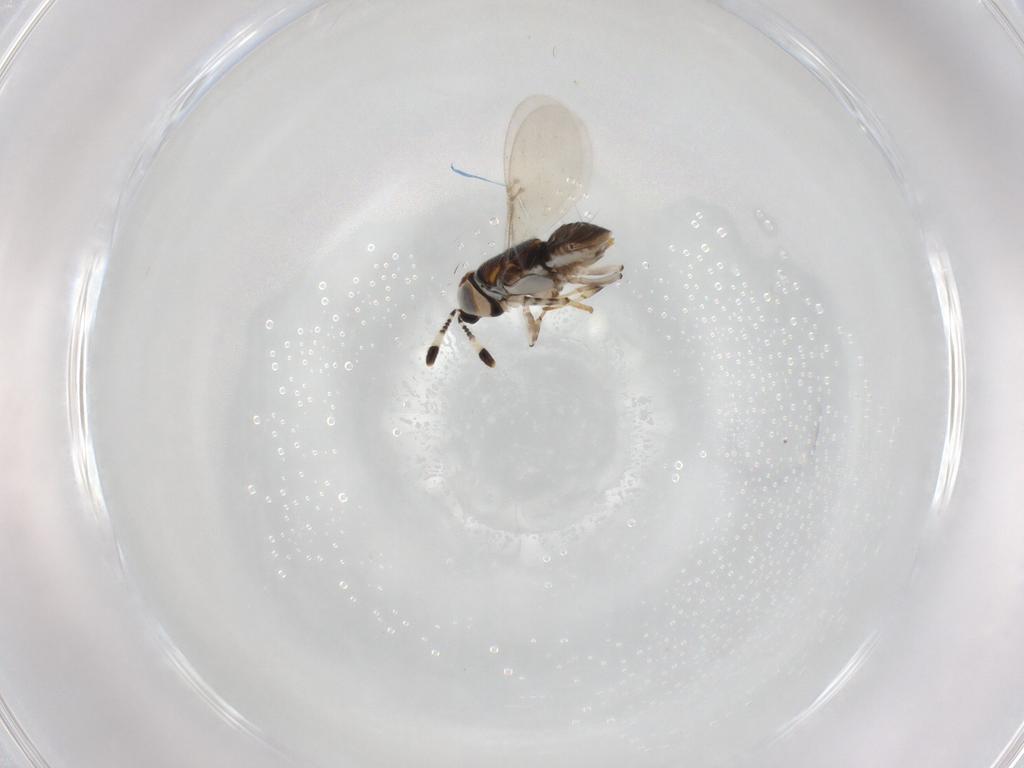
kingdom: Animalia
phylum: Arthropoda
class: Insecta
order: Hymenoptera
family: Encyrtidae
